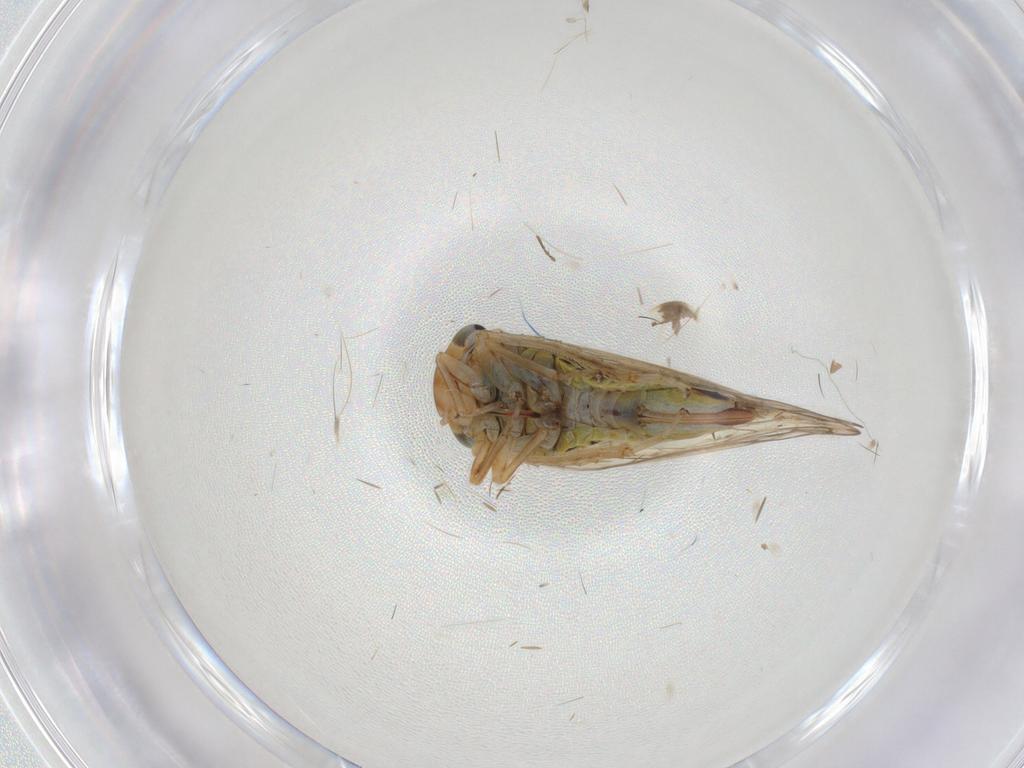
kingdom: Animalia
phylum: Arthropoda
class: Insecta
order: Hemiptera
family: Cicadellidae
